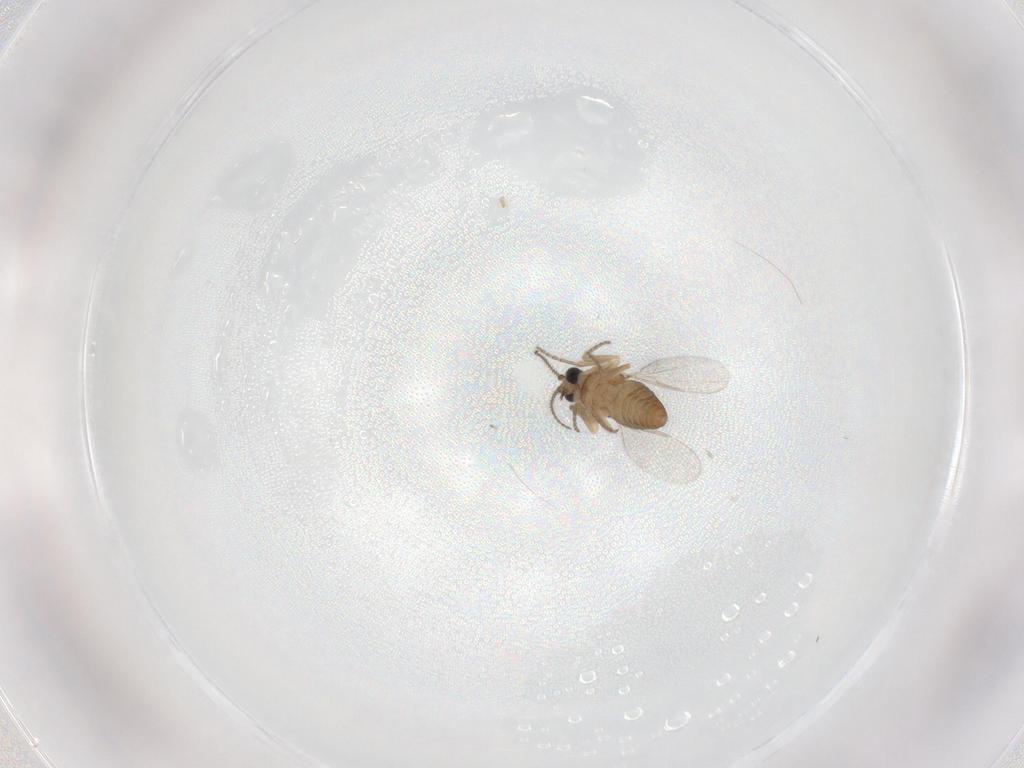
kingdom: Animalia
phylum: Arthropoda
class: Insecta
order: Diptera
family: Ceratopogonidae
